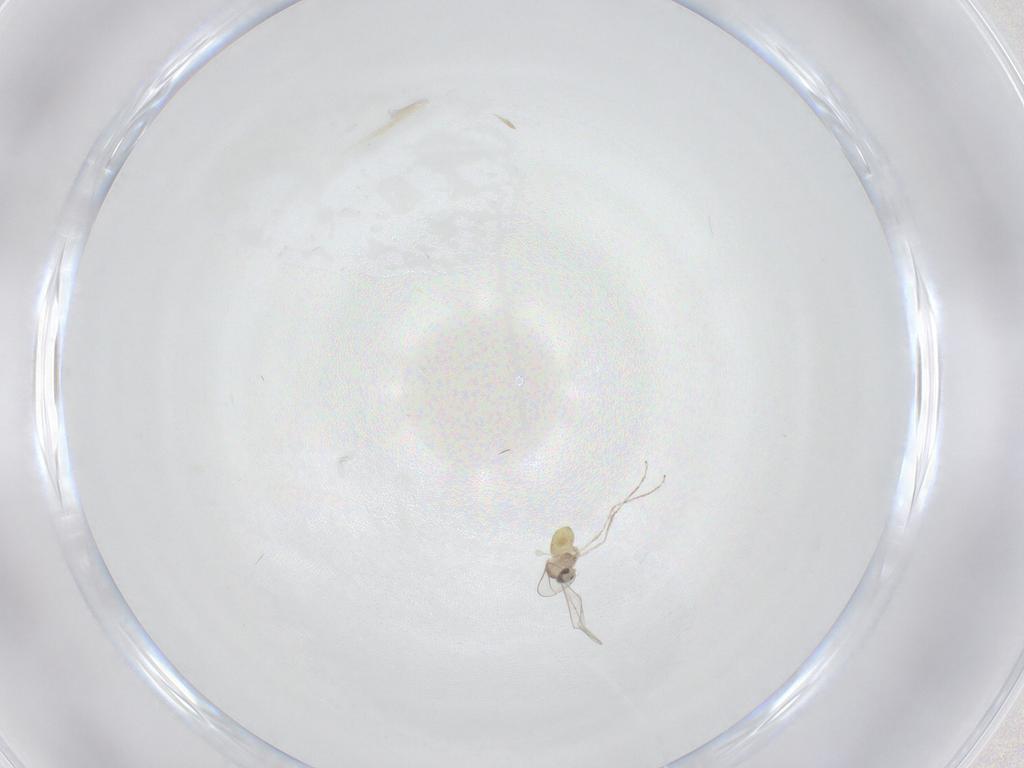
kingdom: Animalia
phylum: Arthropoda
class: Insecta
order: Diptera
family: Cecidomyiidae
